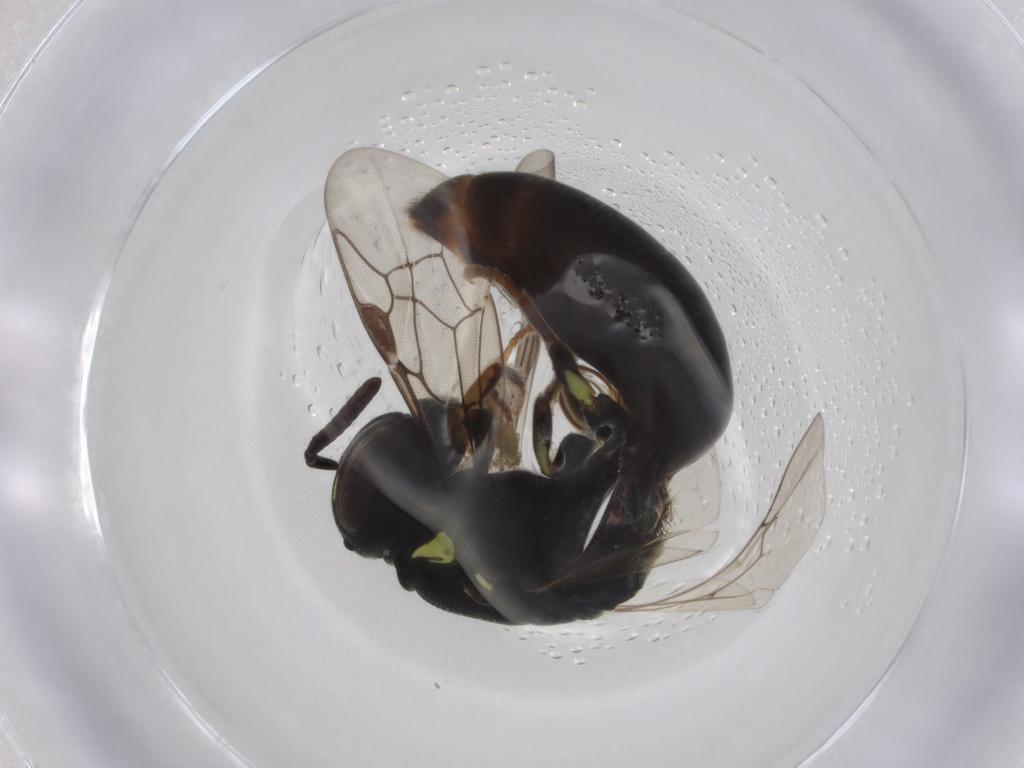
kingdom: Animalia
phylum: Arthropoda
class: Insecta
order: Hymenoptera
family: Colletidae
